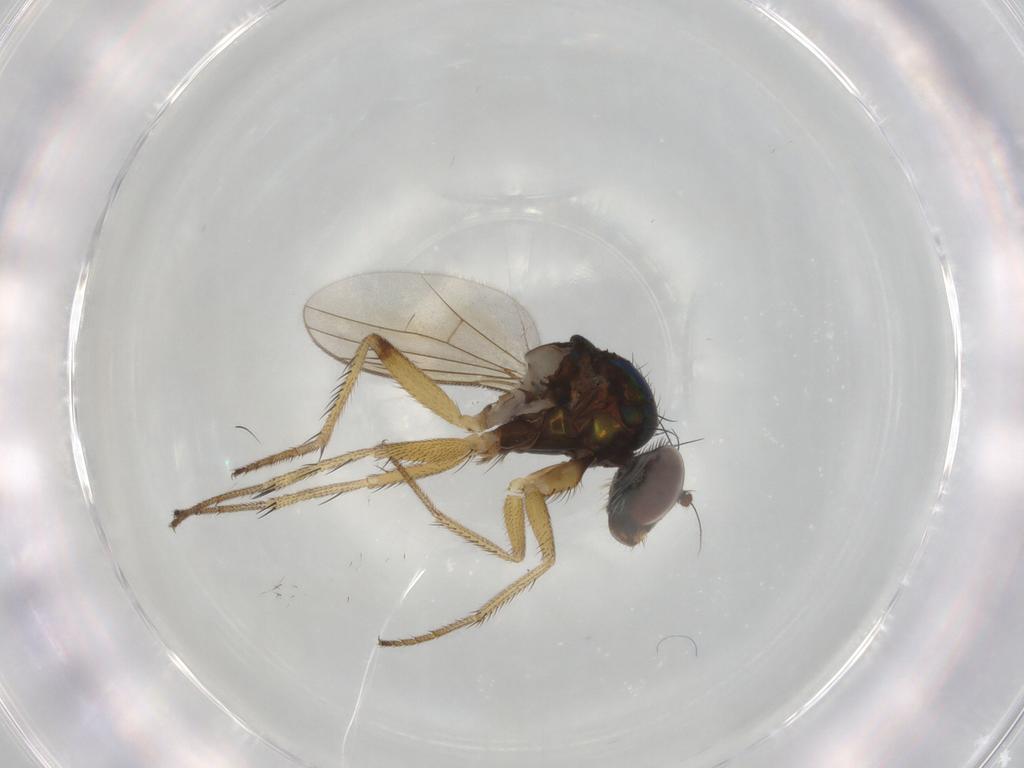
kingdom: Animalia
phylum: Arthropoda
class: Insecta
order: Diptera
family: Dolichopodidae
